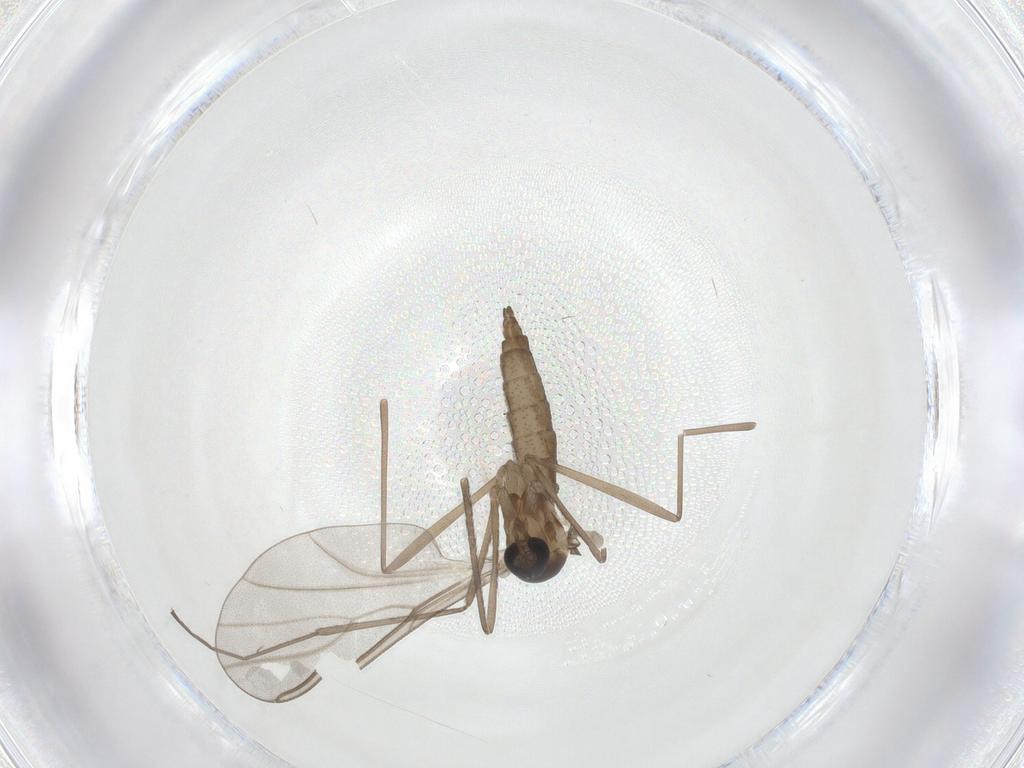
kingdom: Animalia
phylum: Arthropoda
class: Insecta
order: Diptera
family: Cecidomyiidae
